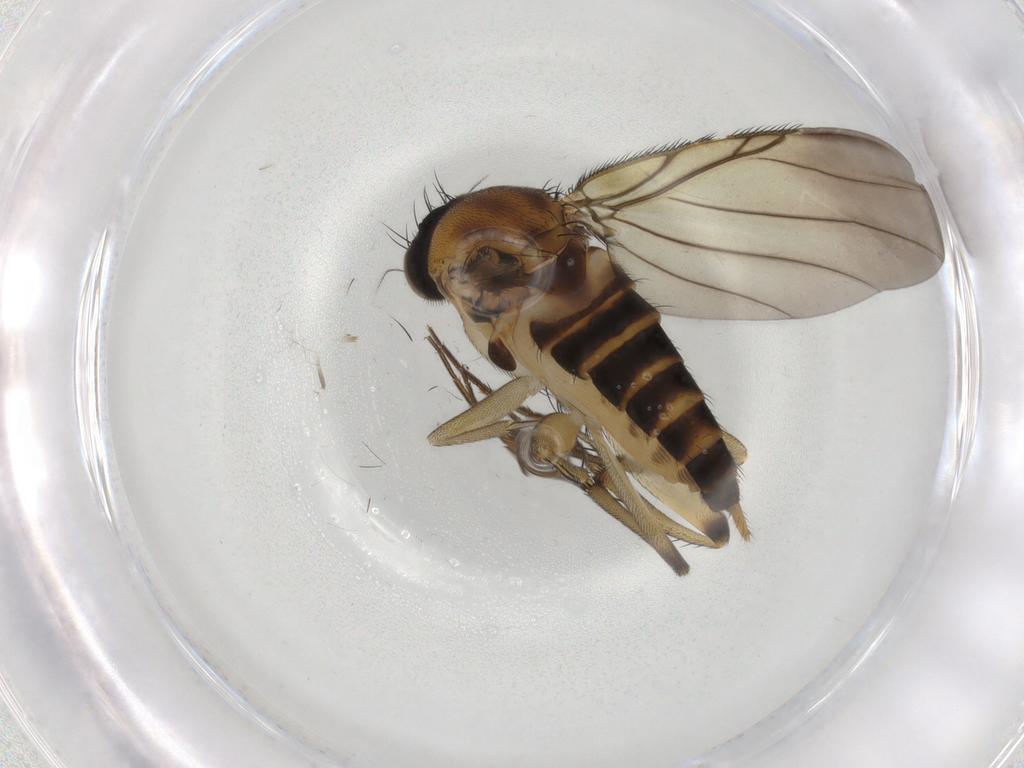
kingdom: Animalia
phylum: Arthropoda
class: Insecta
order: Diptera
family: Phoridae
